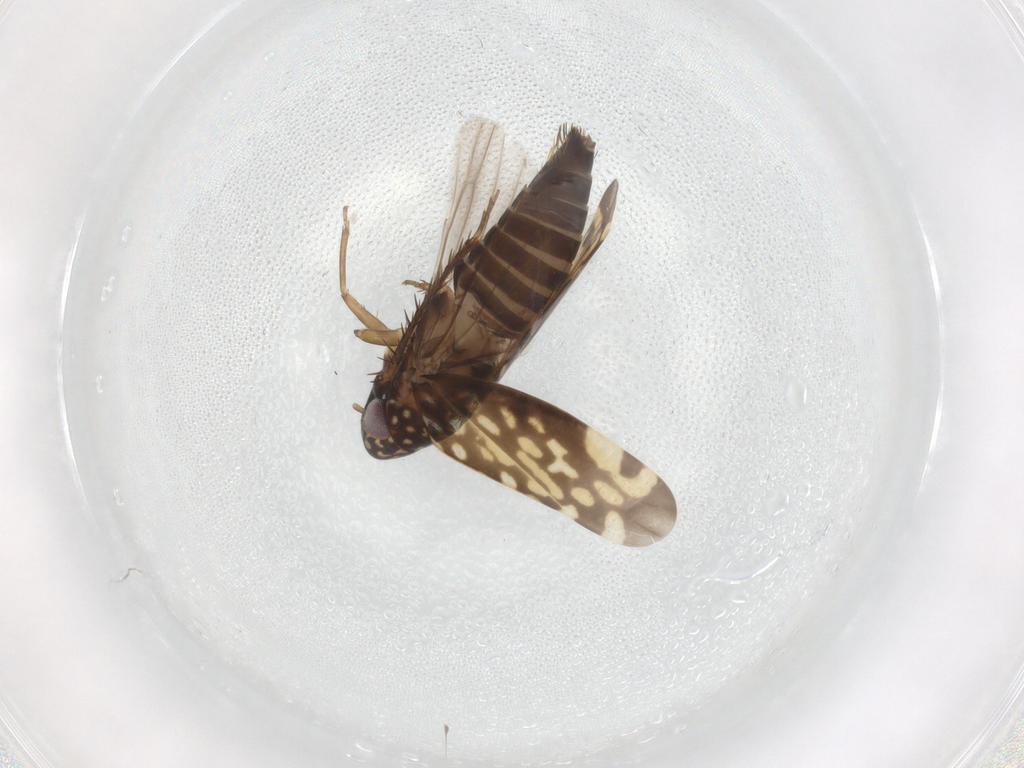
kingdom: Animalia
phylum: Arthropoda
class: Insecta
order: Hemiptera
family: Cicadellidae
